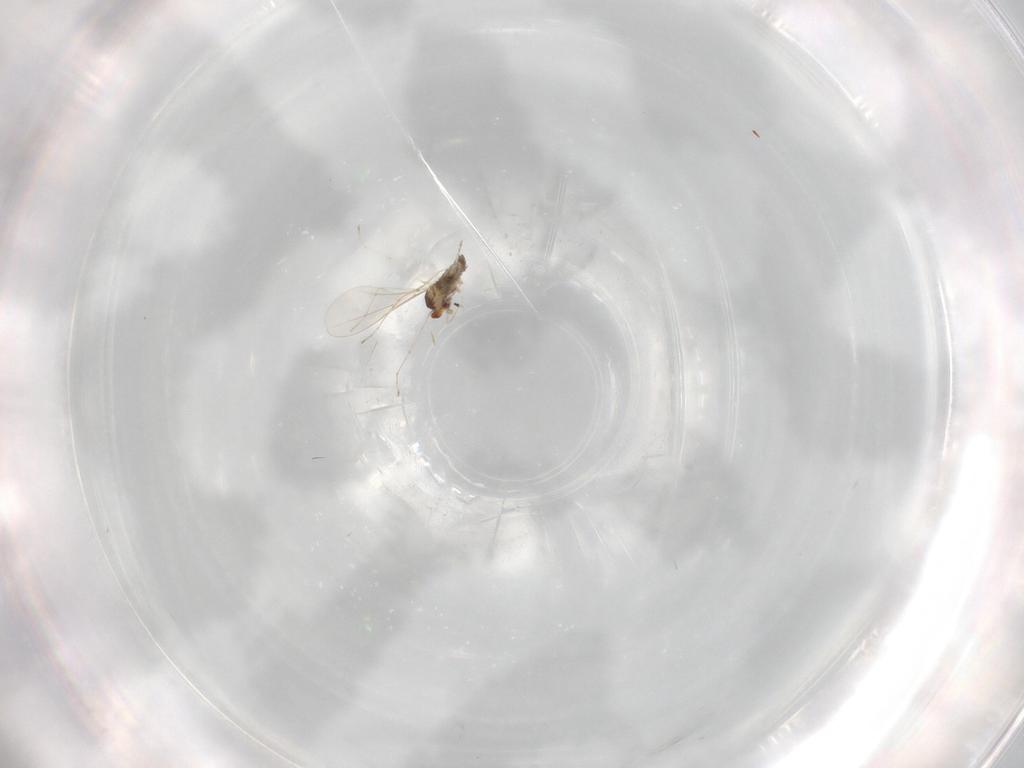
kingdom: Animalia
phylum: Arthropoda
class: Insecta
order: Diptera
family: Cecidomyiidae
